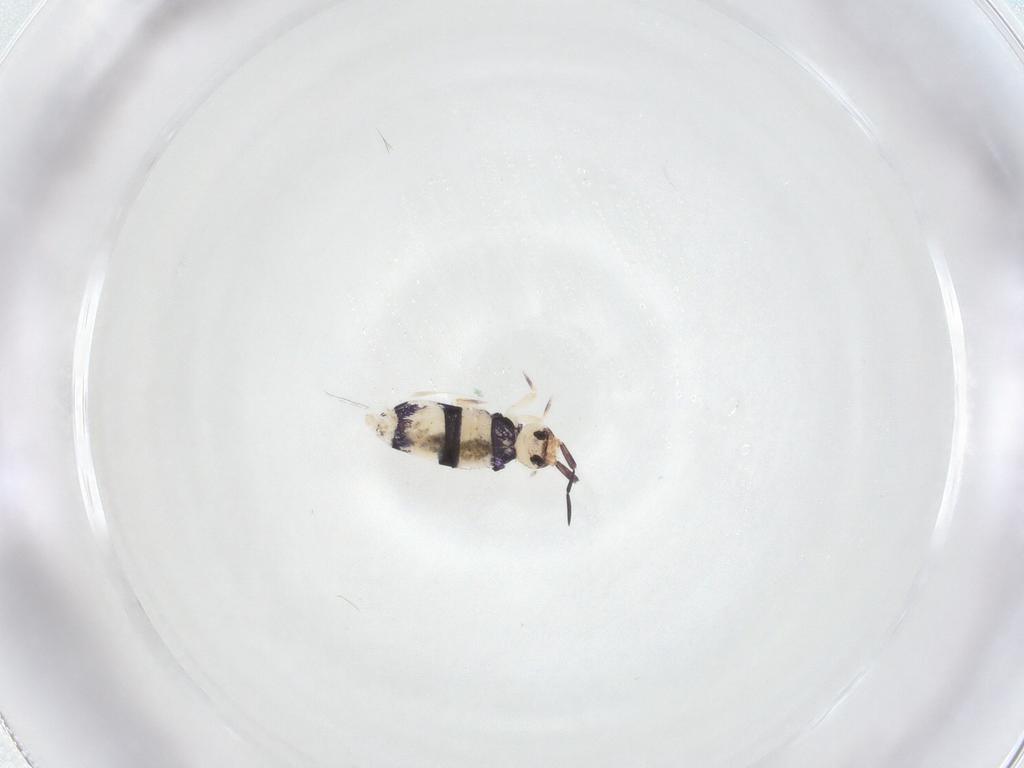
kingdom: Animalia
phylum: Arthropoda
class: Collembola
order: Entomobryomorpha
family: Entomobryidae
